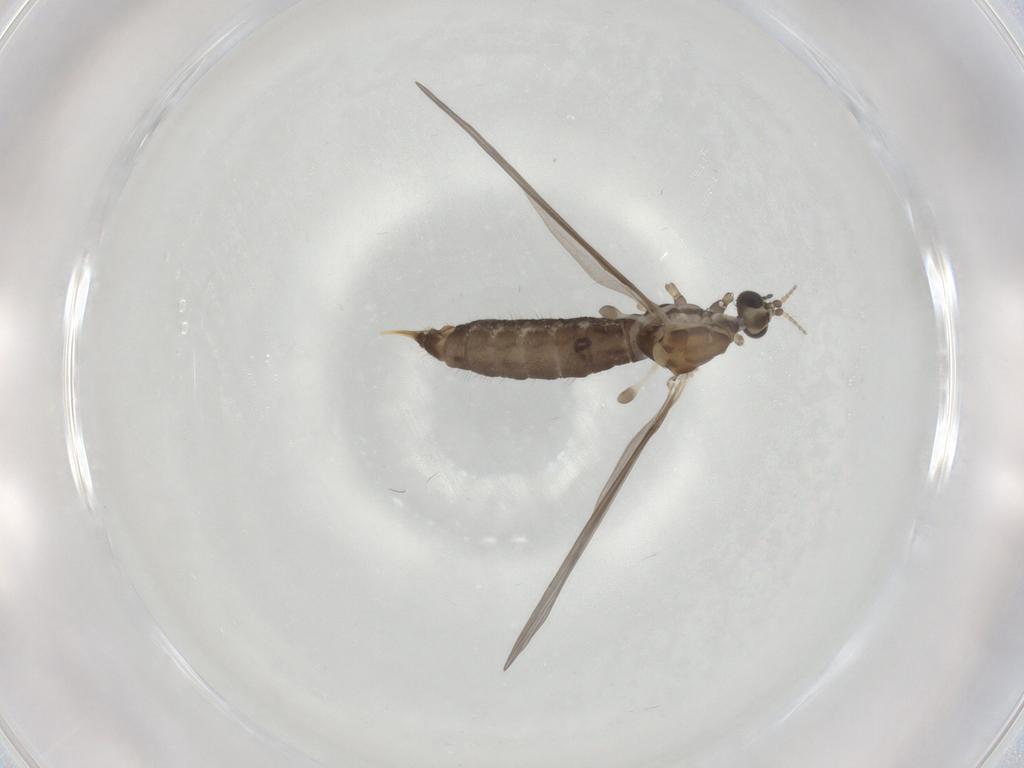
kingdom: Animalia
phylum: Arthropoda
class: Insecta
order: Diptera
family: Limoniidae
